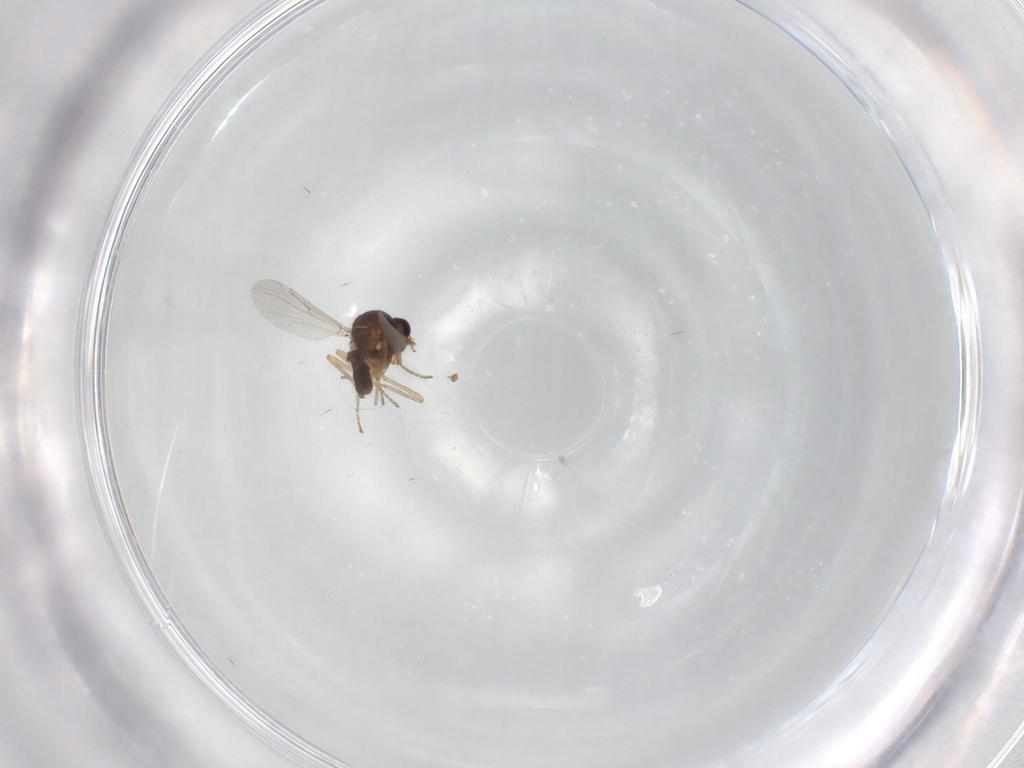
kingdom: Animalia
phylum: Arthropoda
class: Insecta
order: Diptera
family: Ceratopogonidae
